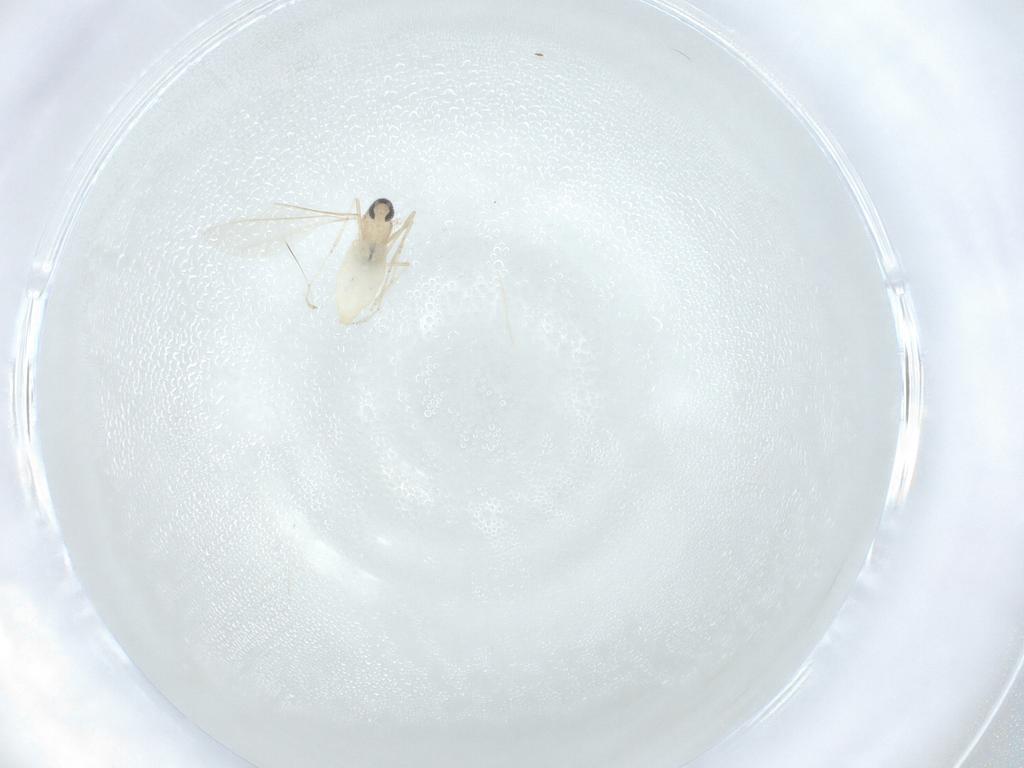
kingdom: Animalia
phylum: Arthropoda
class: Insecta
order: Diptera
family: Cecidomyiidae
